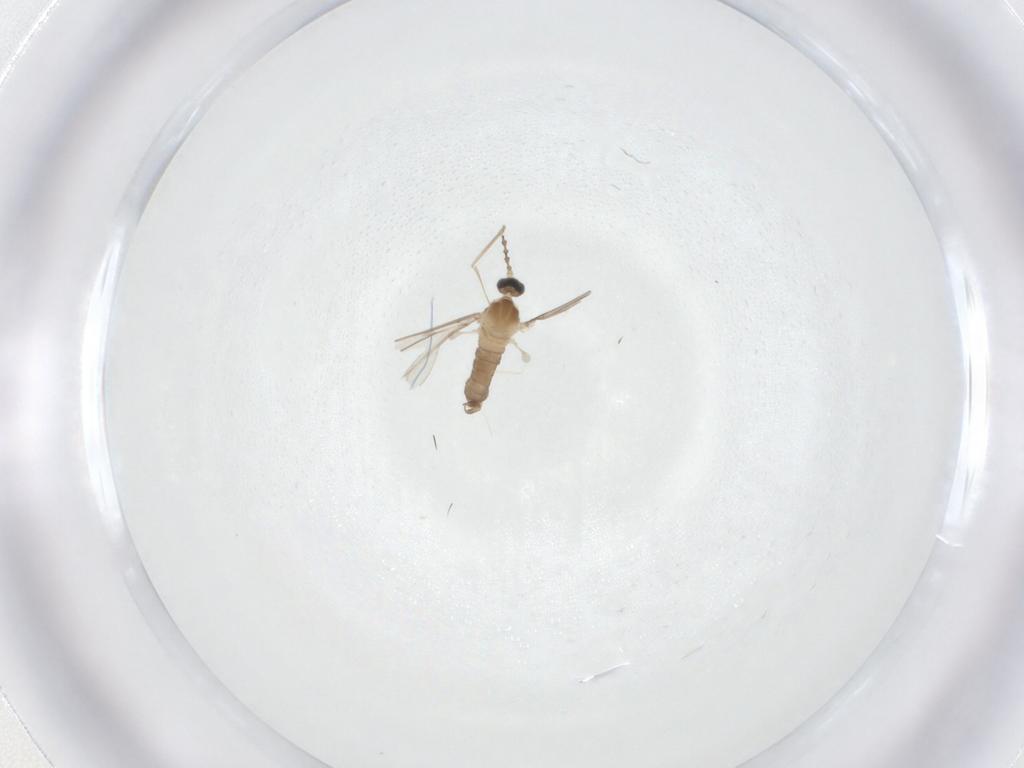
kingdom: Animalia
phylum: Arthropoda
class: Insecta
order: Diptera
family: Cecidomyiidae
